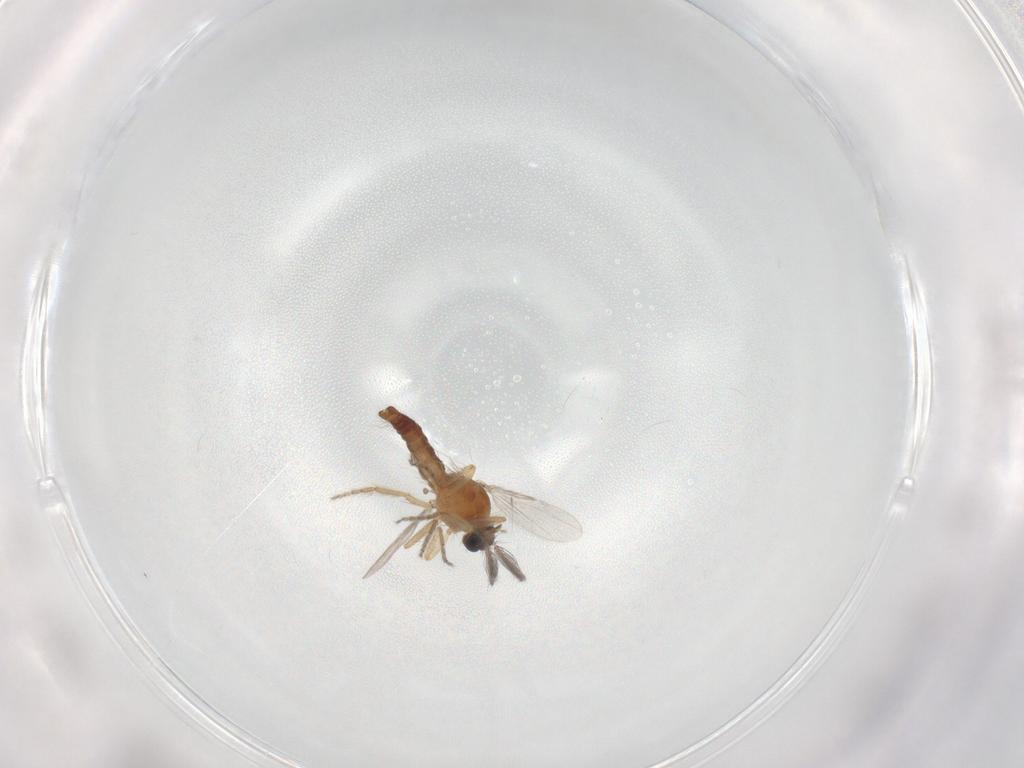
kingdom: Animalia
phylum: Arthropoda
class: Insecta
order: Diptera
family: Ceratopogonidae
